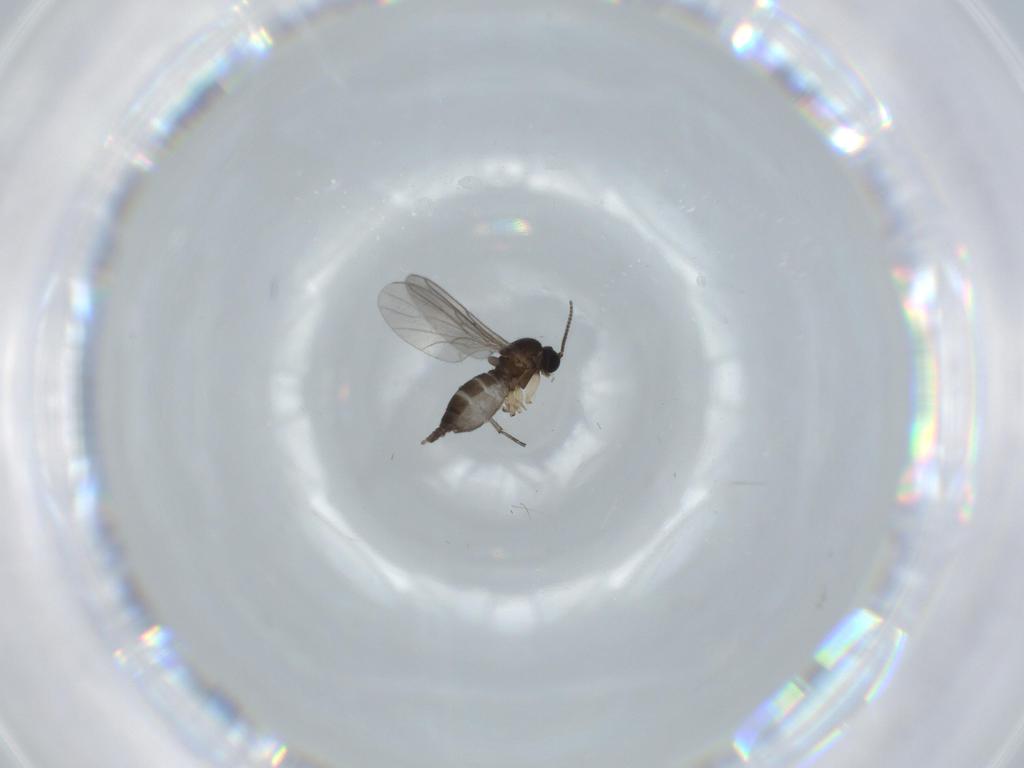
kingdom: Animalia
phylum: Arthropoda
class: Insecta
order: Diptera
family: Sciaridae
